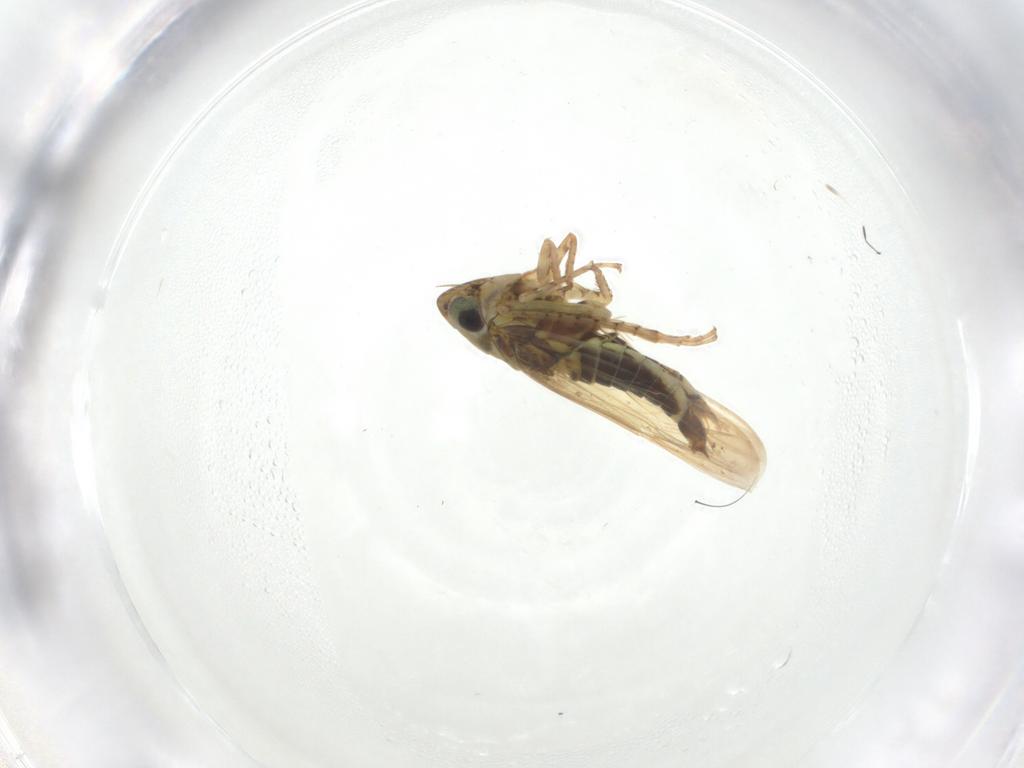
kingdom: Animalia
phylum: Arthropoda
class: Insecta
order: Hemiptera
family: Cicadellidae
